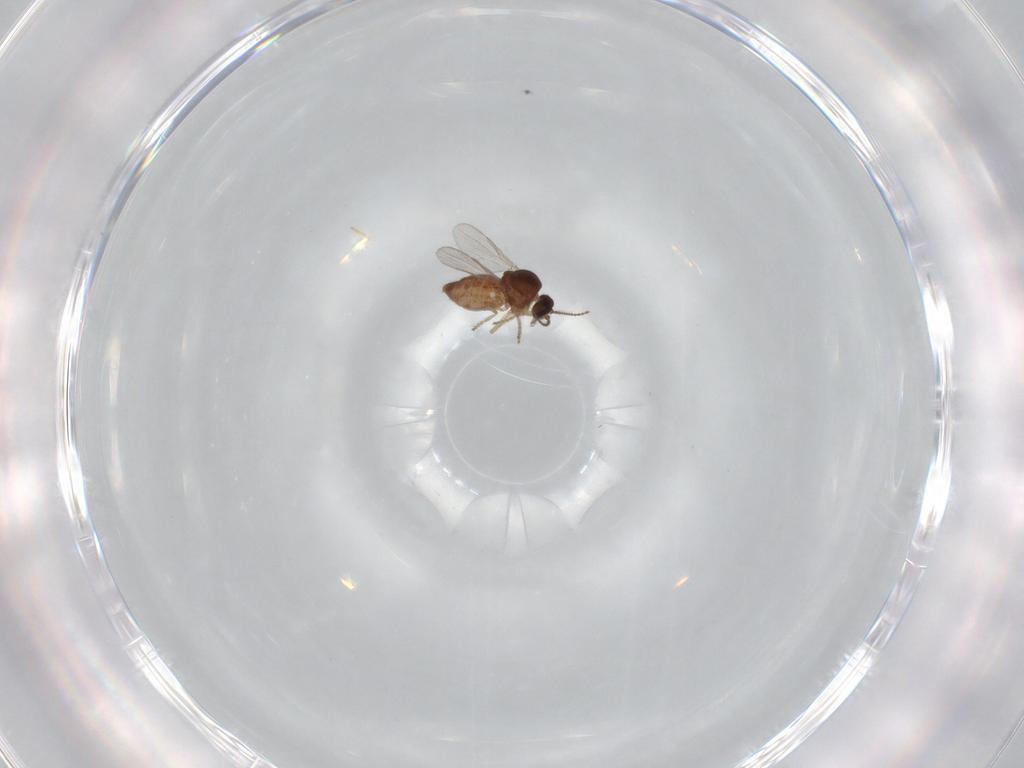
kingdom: Animalia
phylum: Arthropoda
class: Insecta
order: Diptera
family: Ceratopogonidae
